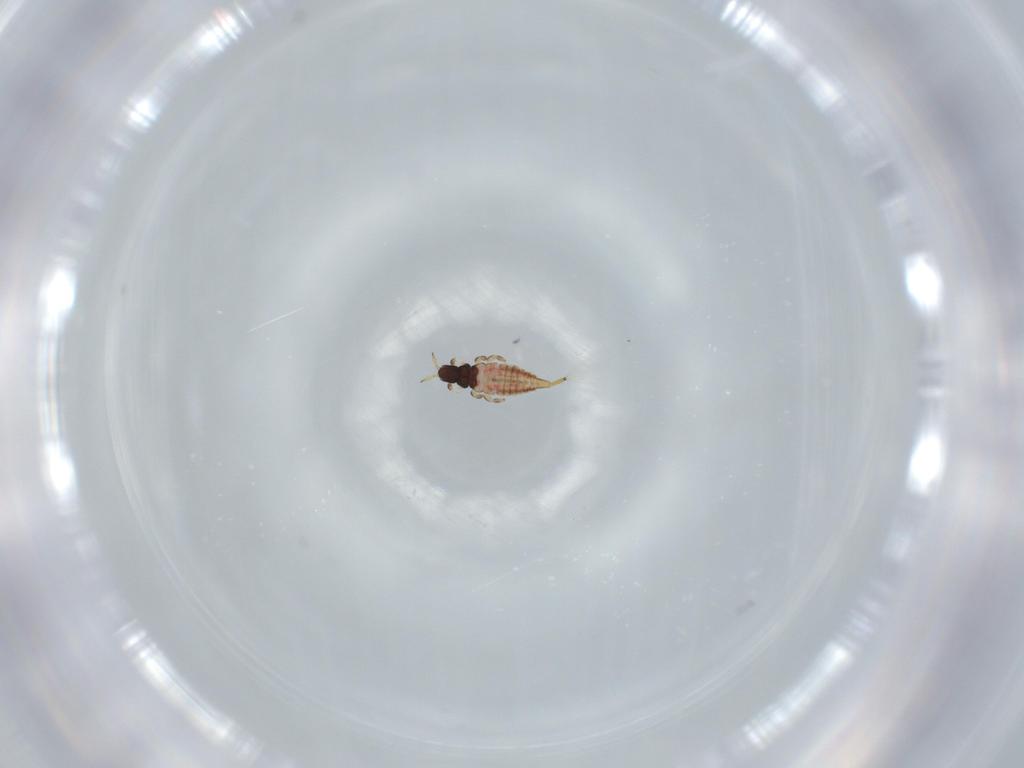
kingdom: Animalia
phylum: Arthropoda
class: Insecta
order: Thysanoptera
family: Phlaeothripidae
